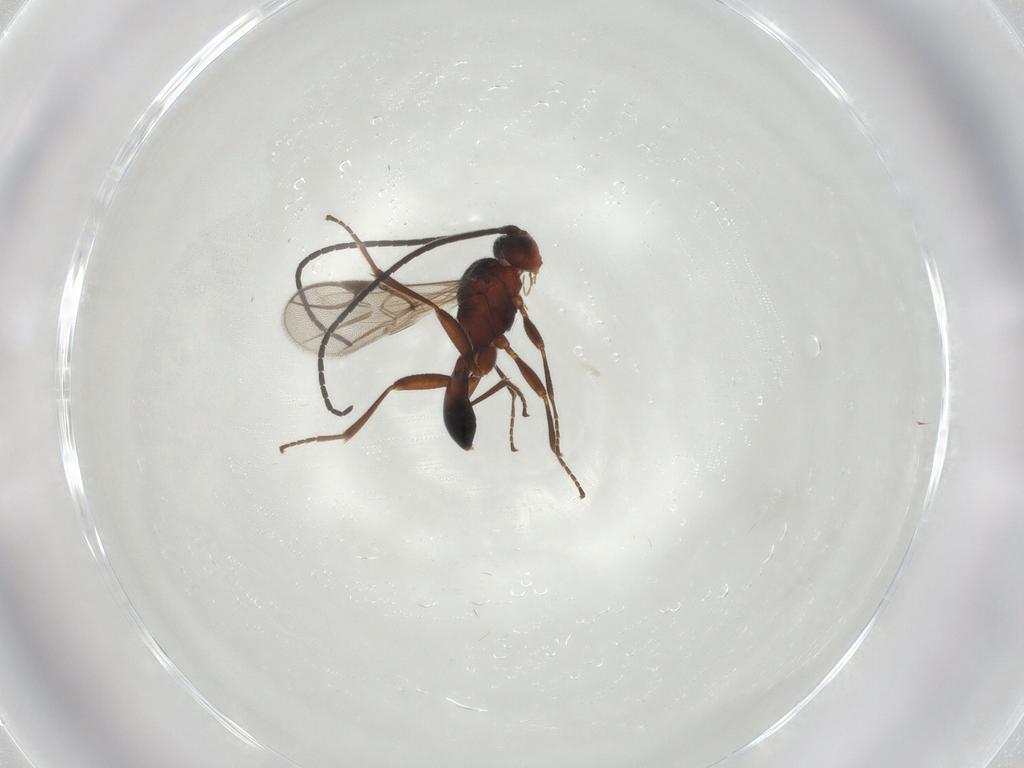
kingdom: Animalia
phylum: Arthropoda
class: Insecta
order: Hymenoptera
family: Braconidae
